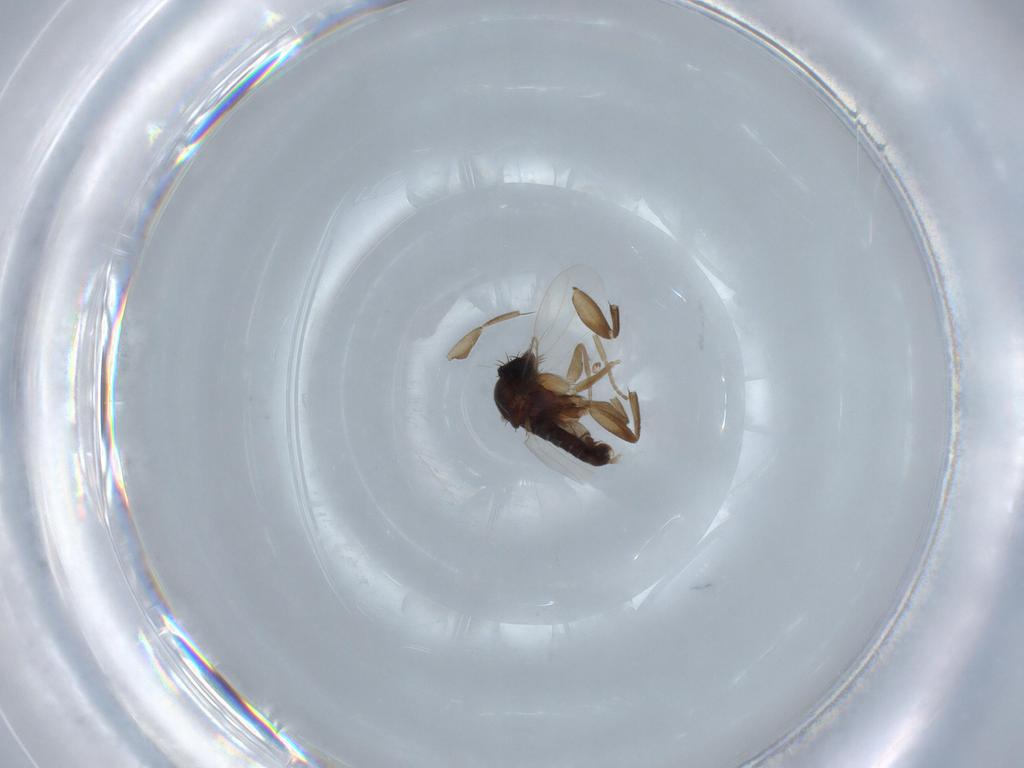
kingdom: Animalia
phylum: Arthropoda
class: Insecta
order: Diptera
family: Phoridae
